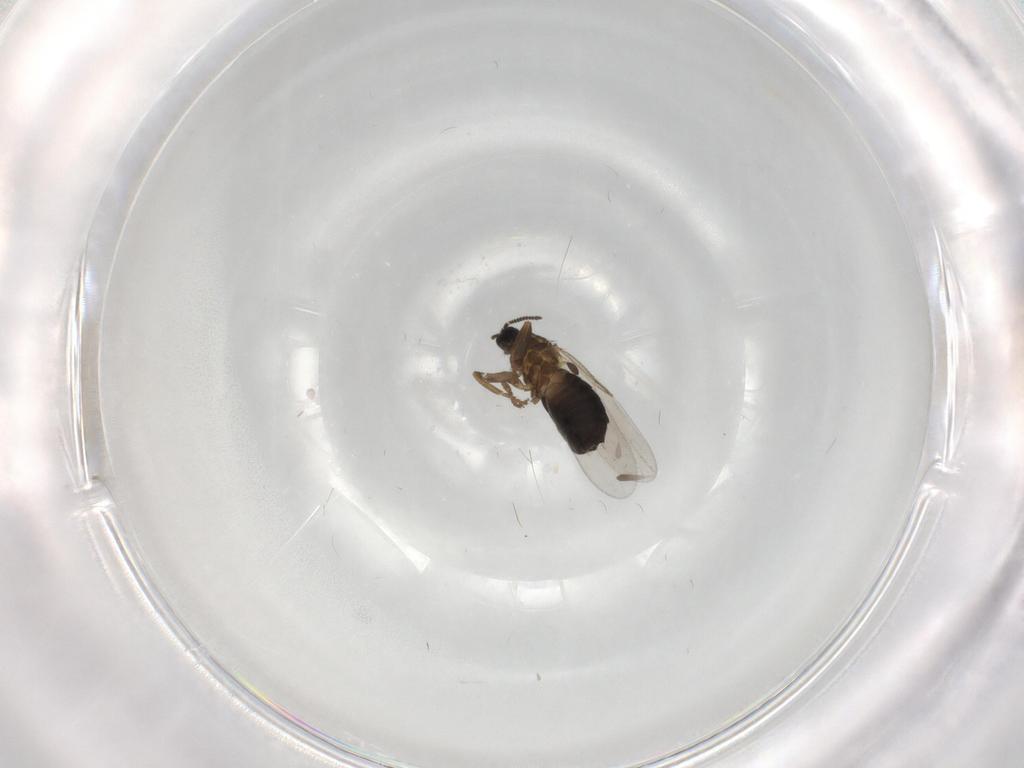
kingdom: Animalia
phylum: Arthropoda
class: Insecta
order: Diptera
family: Scatopsidae
